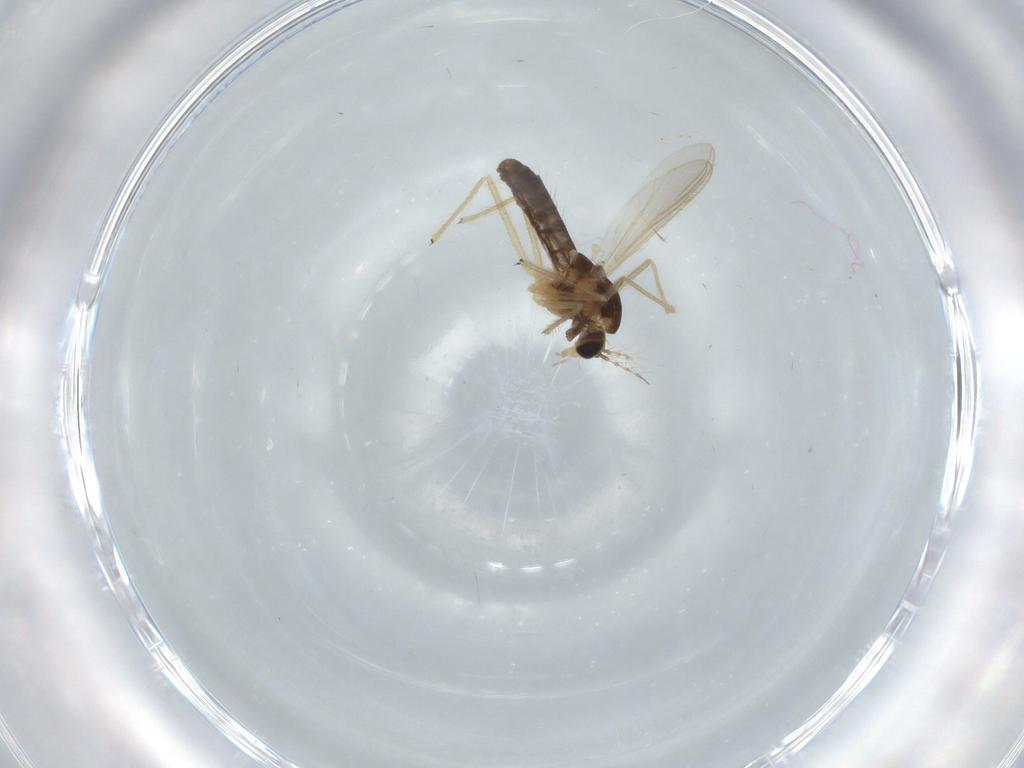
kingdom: Animalia
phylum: Arthropoda
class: Insecta
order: Diptera
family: Chironomidae
